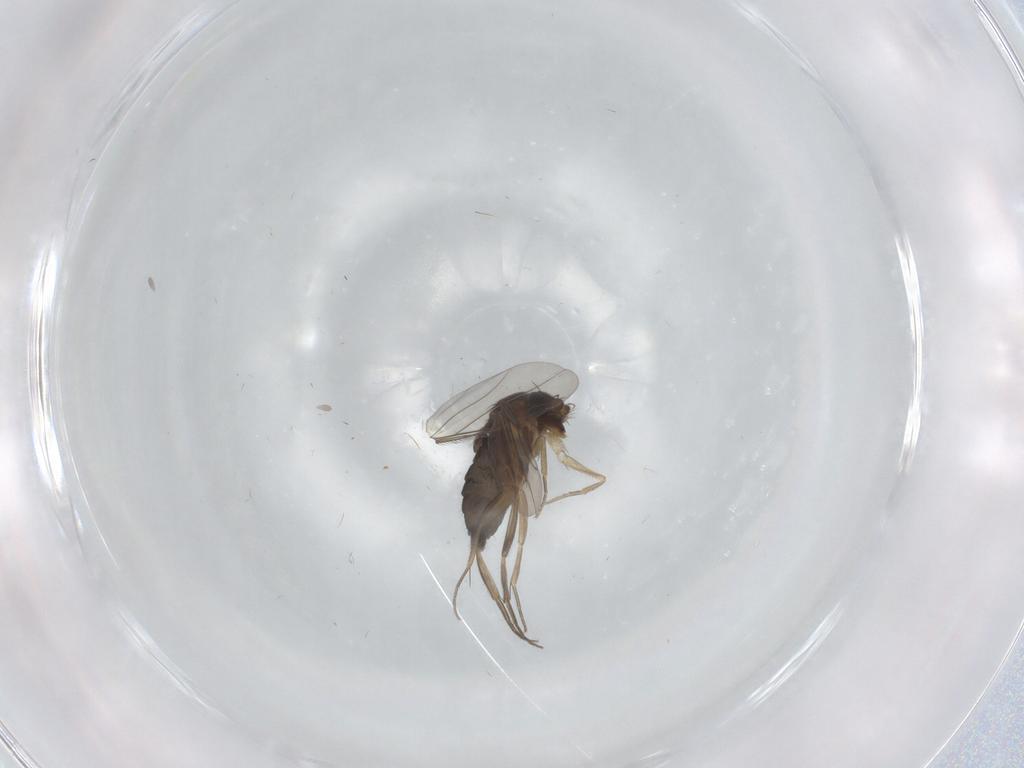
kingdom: Animalia
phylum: Arthropoda
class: Insecta
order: Diptera
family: Phoridae
